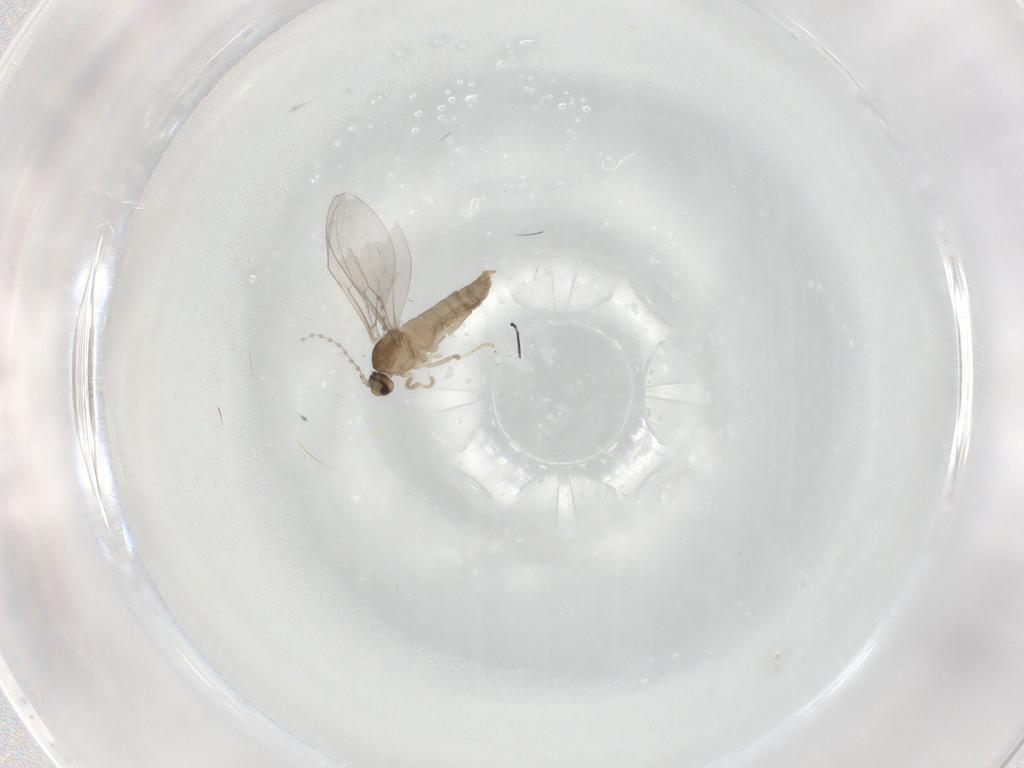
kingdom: Animalia
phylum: Arthropoda
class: Insecta
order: Diptera
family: Cecidomyiidae
